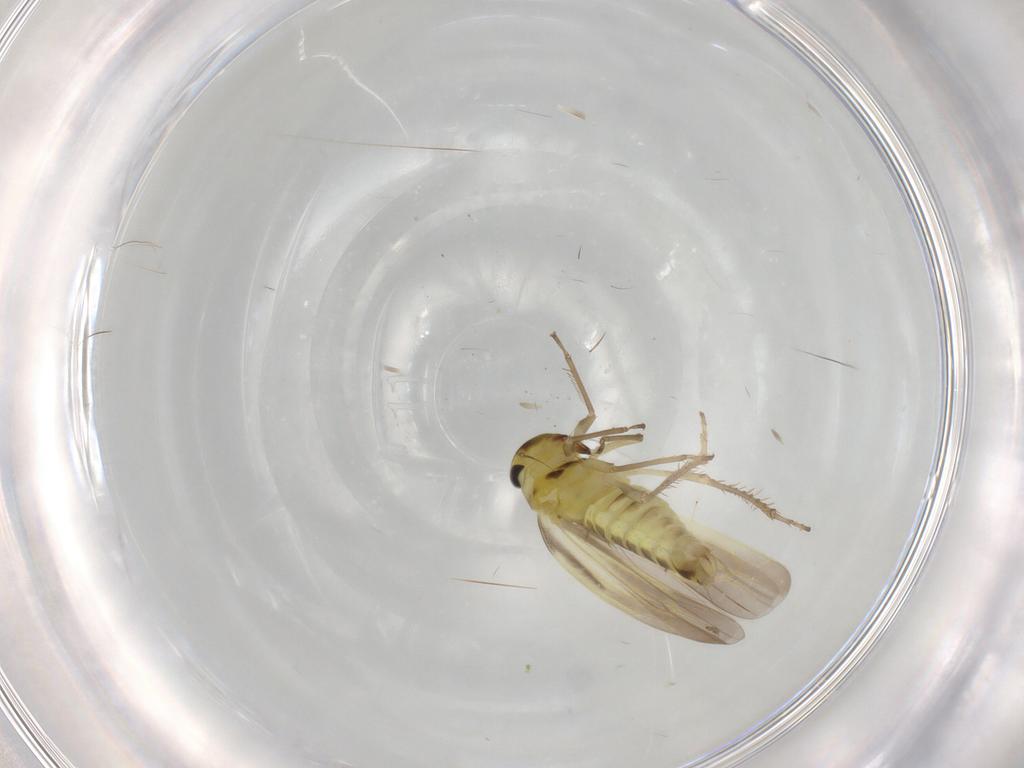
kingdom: Animalia
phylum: Arthropoda
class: Insecta
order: Hemiptera
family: Cicadellidae
